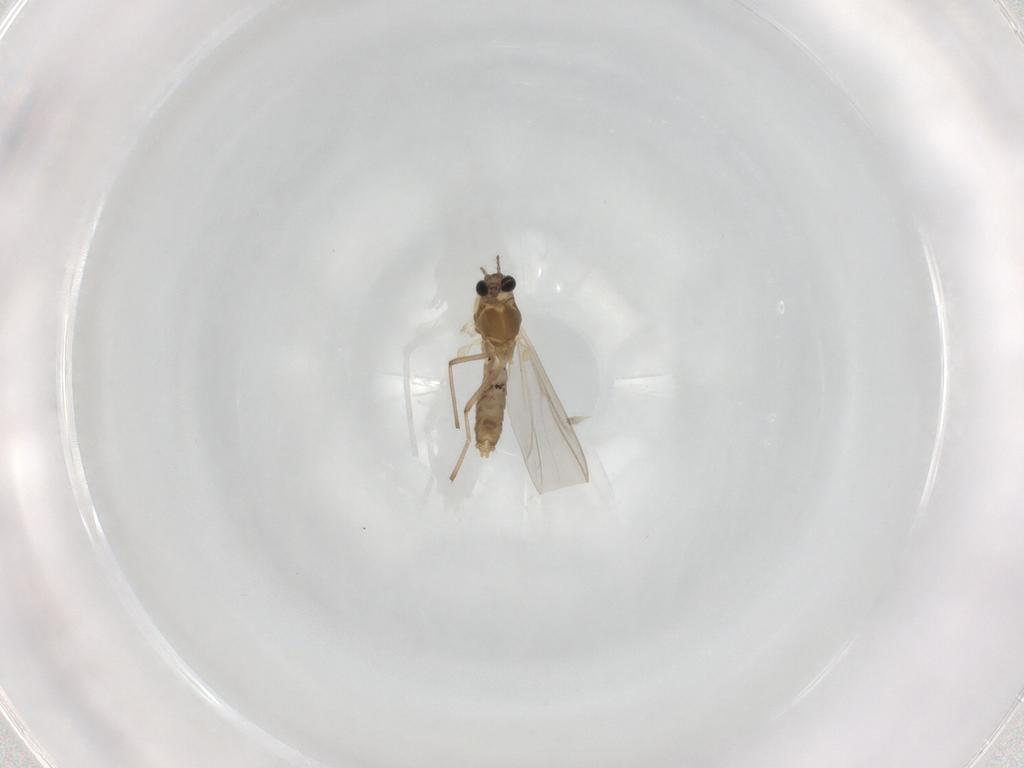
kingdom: Animalia
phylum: Arthropoda
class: Insecta
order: Diptera
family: Chironomidae
